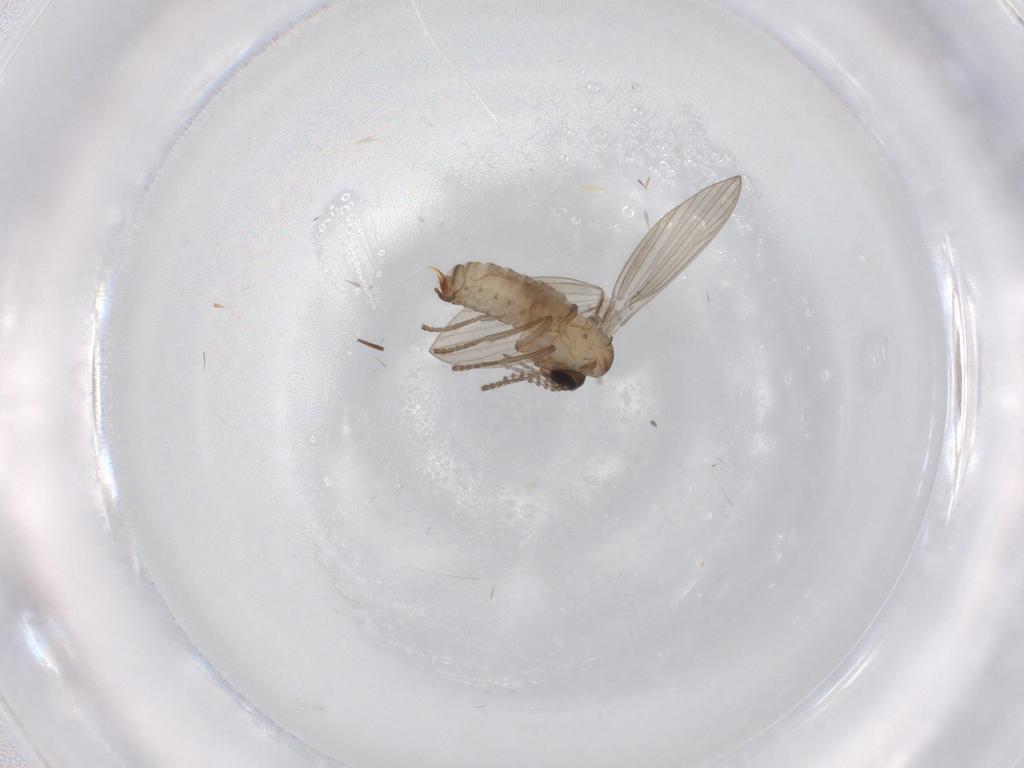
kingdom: Animalia
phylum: Arthropoda
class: Insecta
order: Diptera
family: Psychodidae
